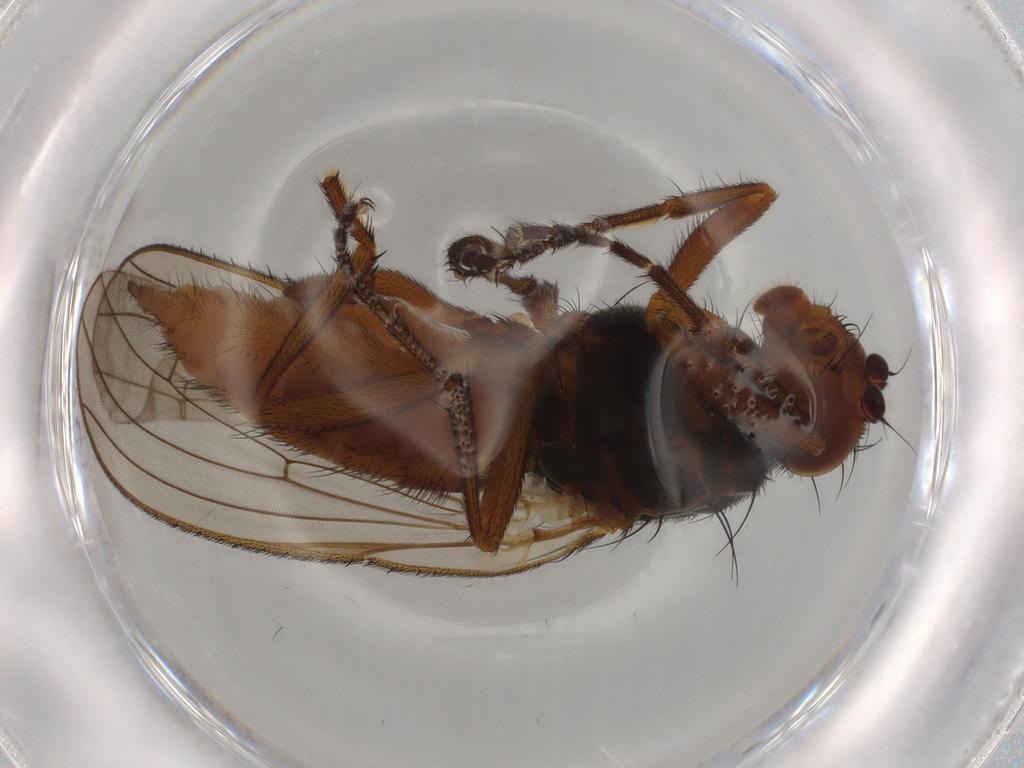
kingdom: Animalia
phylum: Arthropoda
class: Insecta
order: Diptera
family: Heleomyzidae
